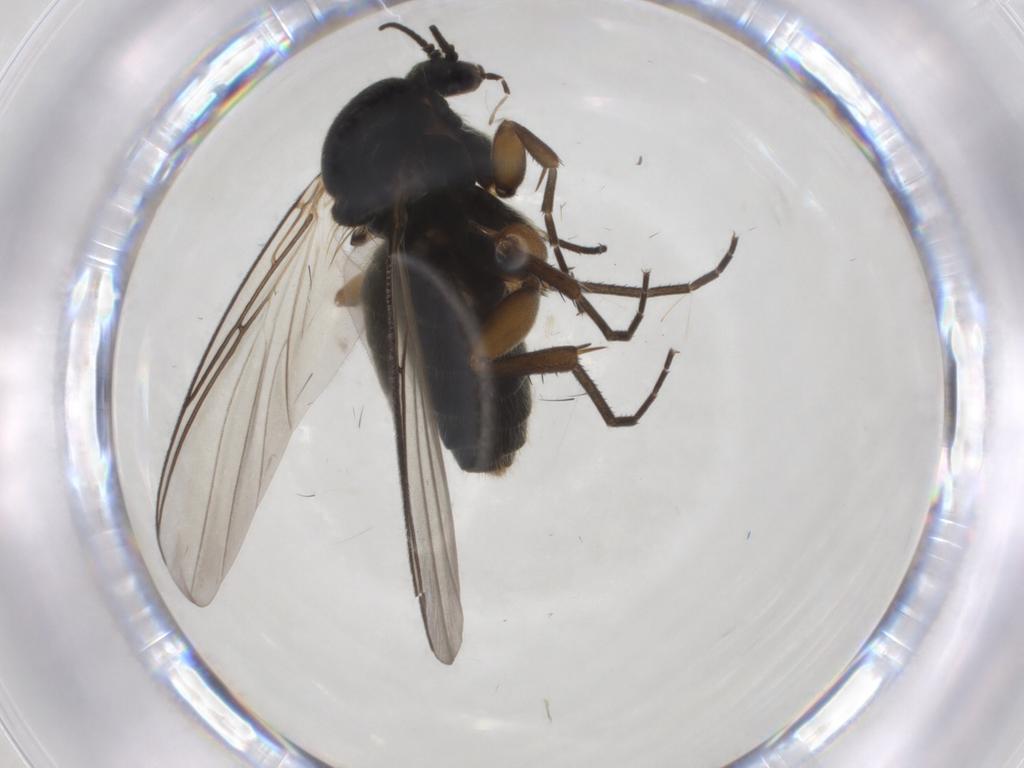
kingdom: Animalia
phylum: Arthropoda
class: Insecta
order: Diptera
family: Mycetophilidae
